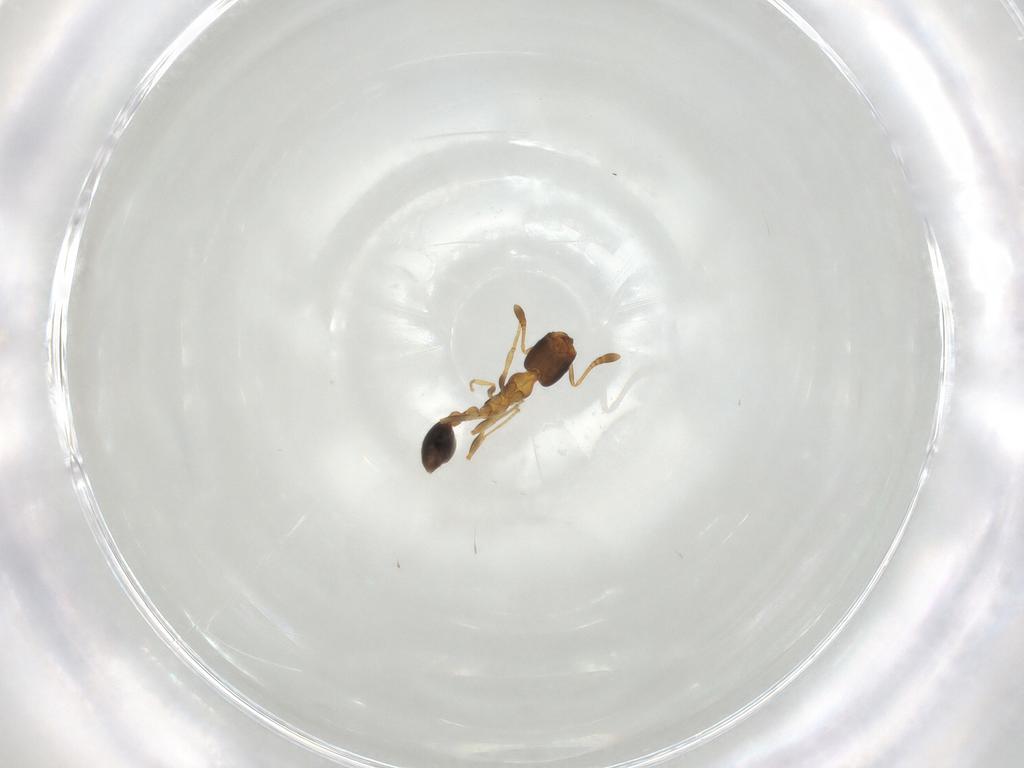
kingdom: Animalia
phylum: Arthropoda
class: Insecta
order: Hymenoptera
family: Formicidae
